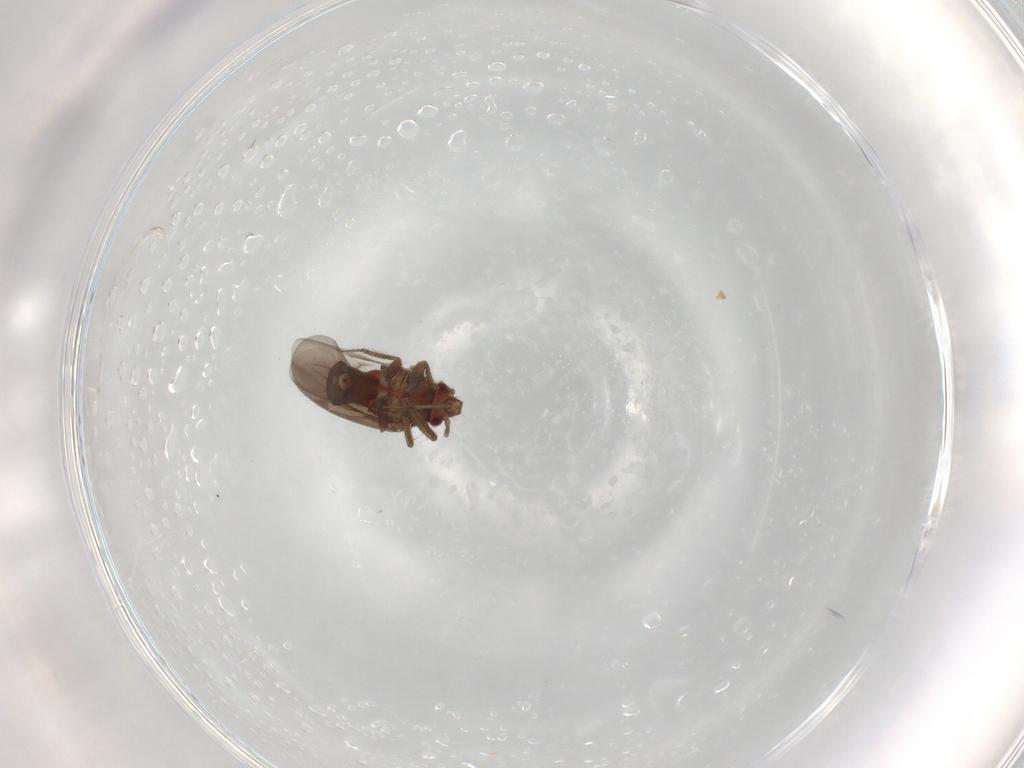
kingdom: Animalia
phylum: Arthropoda
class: Insecta
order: Hemiptera
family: Ceratocombidae
